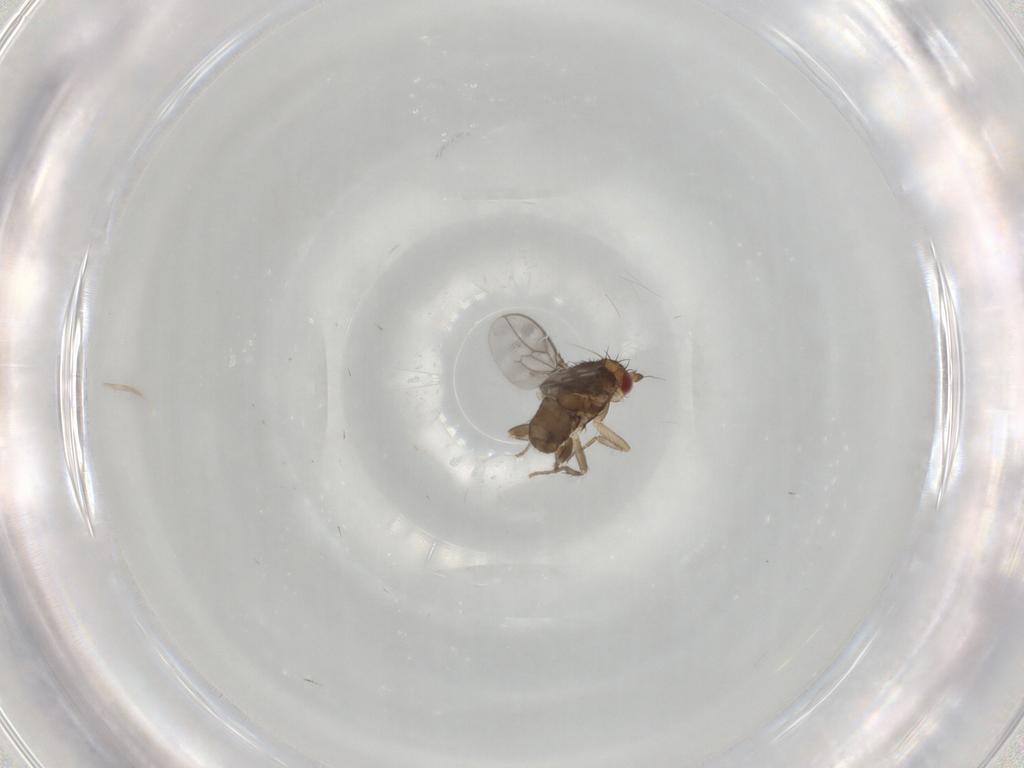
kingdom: Animalia
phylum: Arthropoda
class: Insecta
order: Diptera
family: Sphaeroceridae
